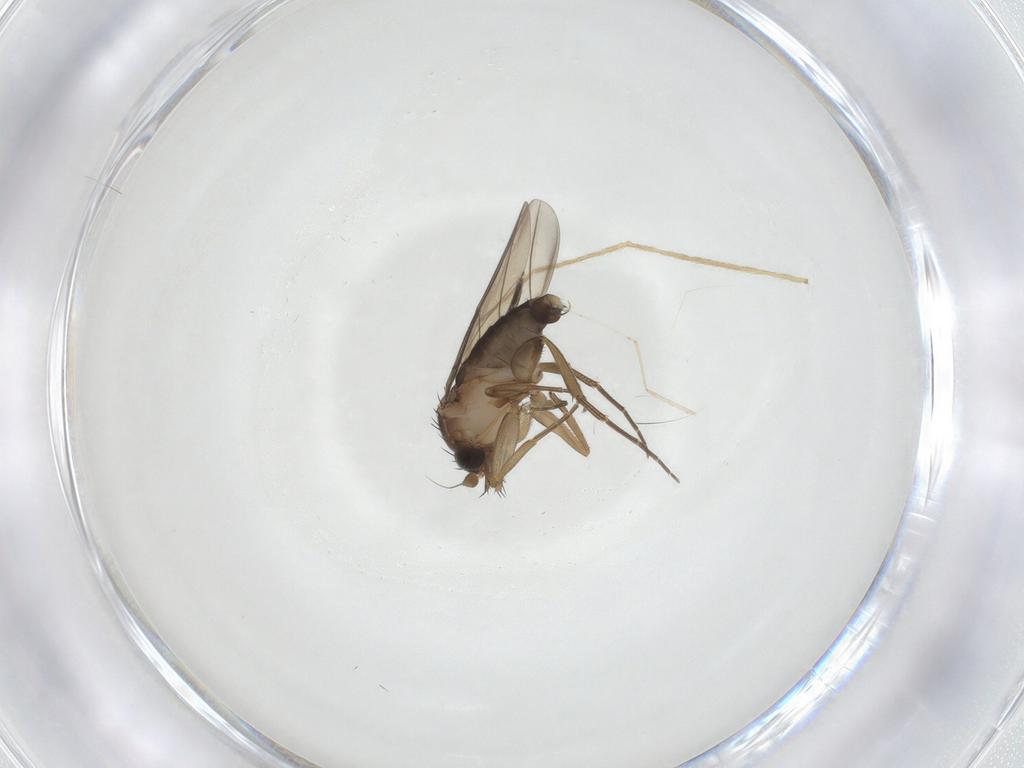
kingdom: Animalia
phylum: Arthropoda
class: Insecta
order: Diptera
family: Phoridae
